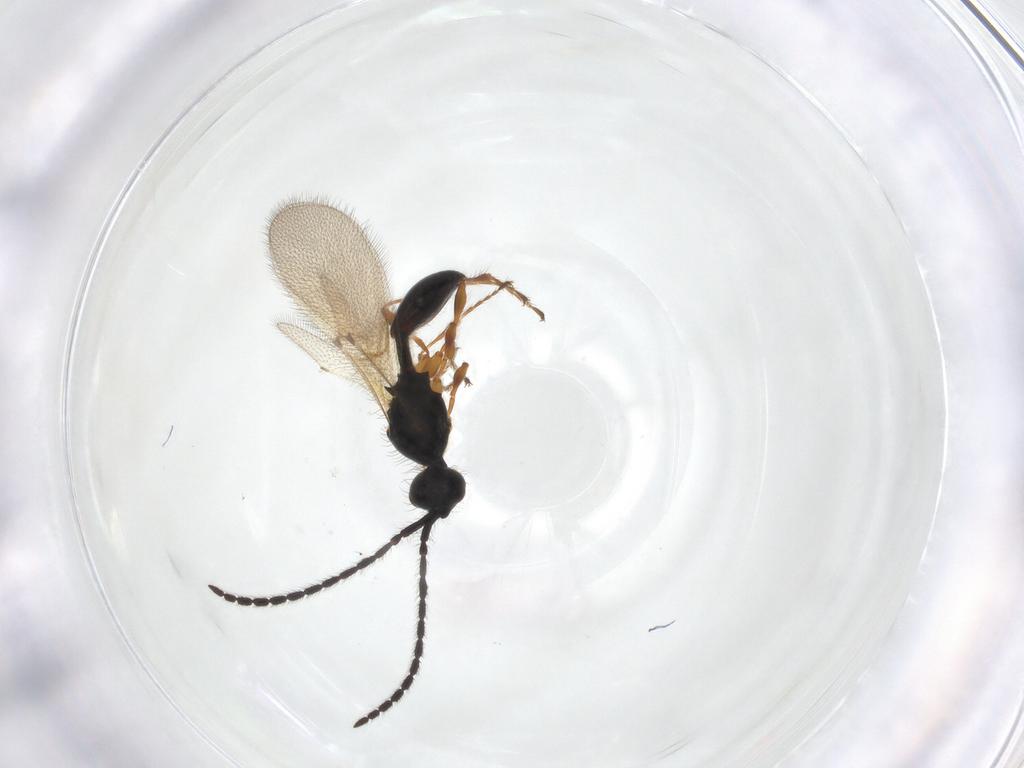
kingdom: Animalia
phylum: Arthropoda
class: Insecta
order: Hymenoptera
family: Diapriidae
